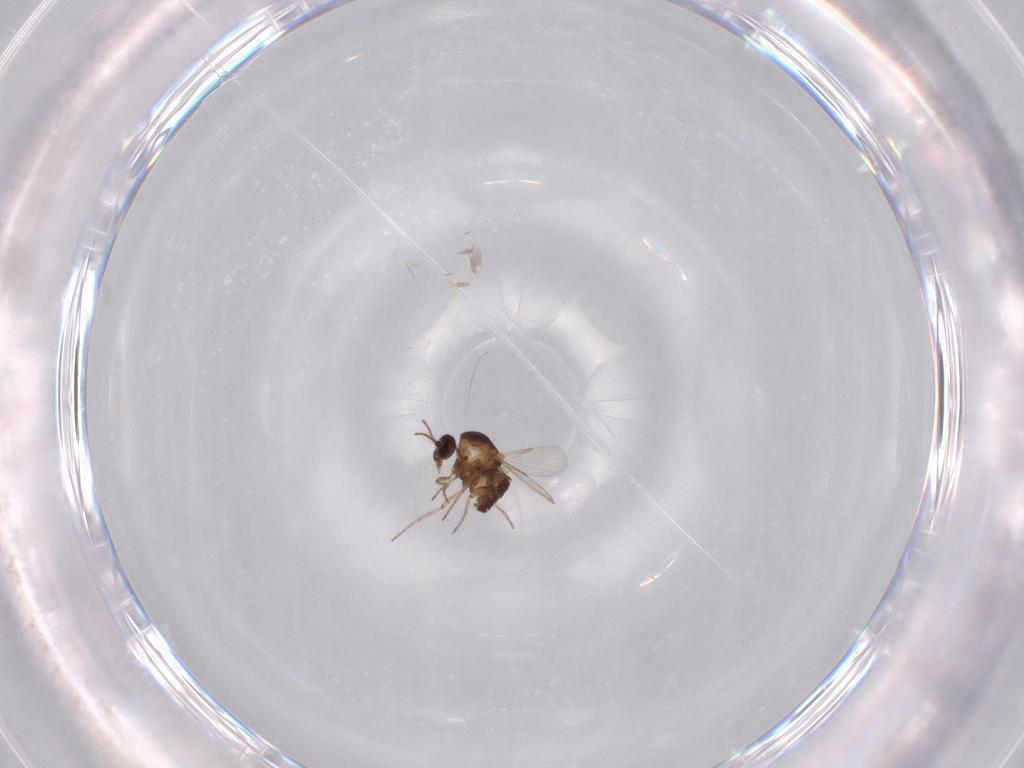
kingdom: Animalia
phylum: Arthropoda
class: Insecta
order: Diptera
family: Ceratopogonidae
